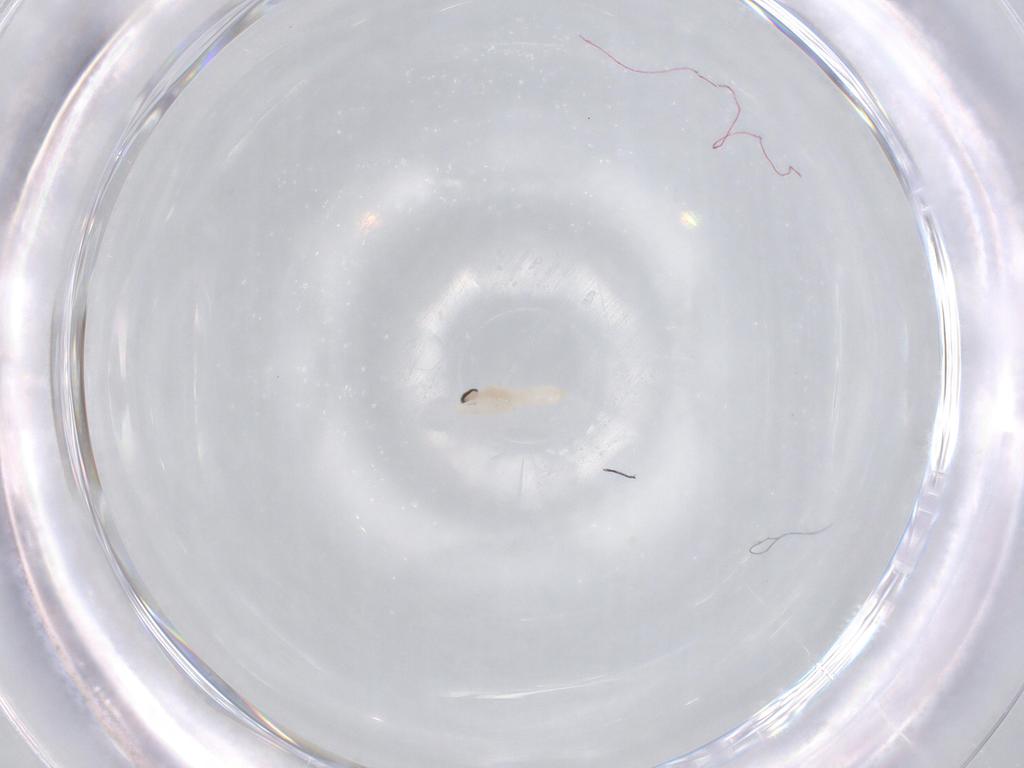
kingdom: Animalia
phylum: Arthropoda
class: Insecta
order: Diptera
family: Cecidomyiidae
